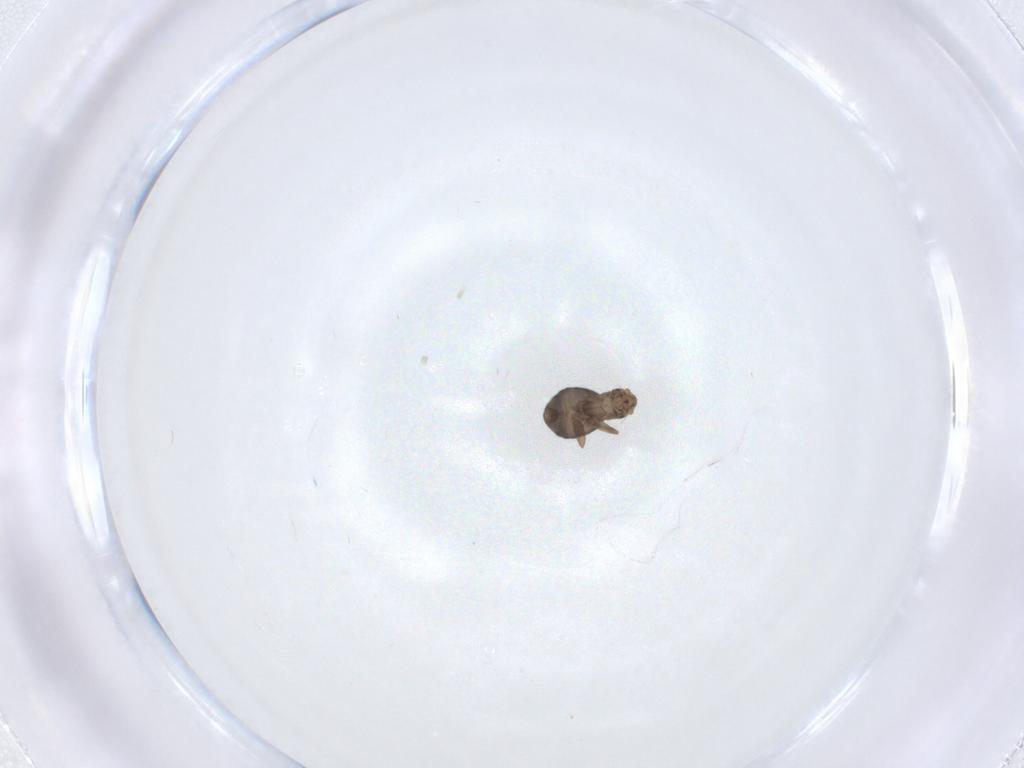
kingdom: Animalia
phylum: Arthropoda
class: Insecta
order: Diptera
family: Phoridae
